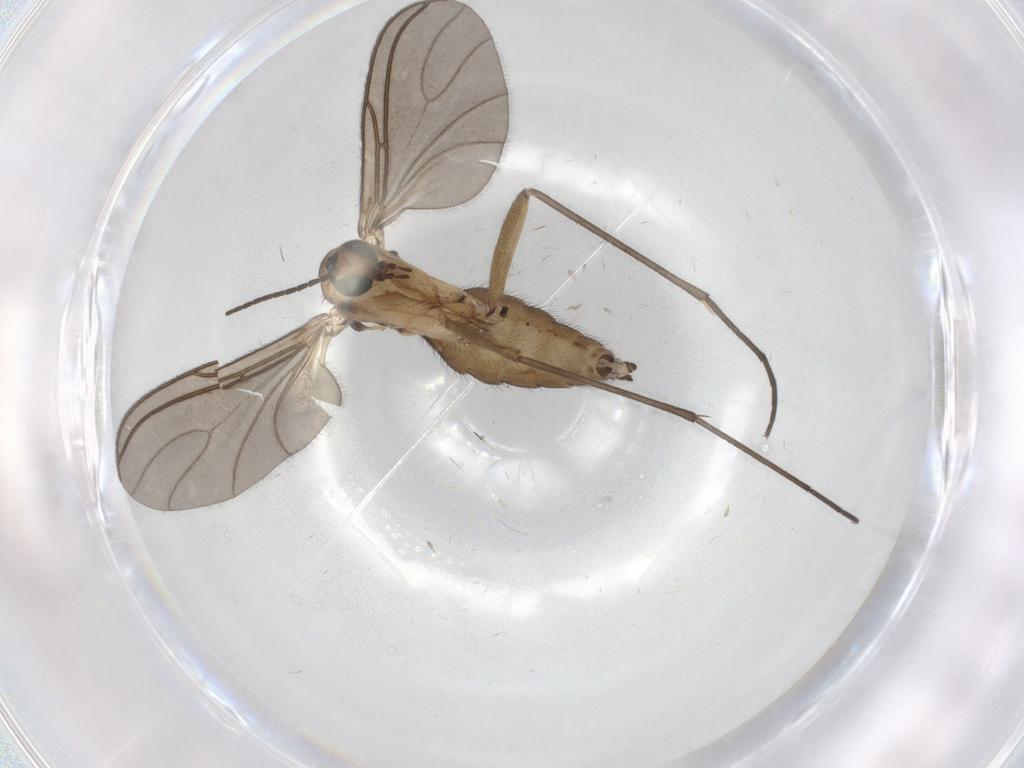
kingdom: Animalia
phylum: Arthropoda
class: Insecta
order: Diptera
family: Sciaridae
